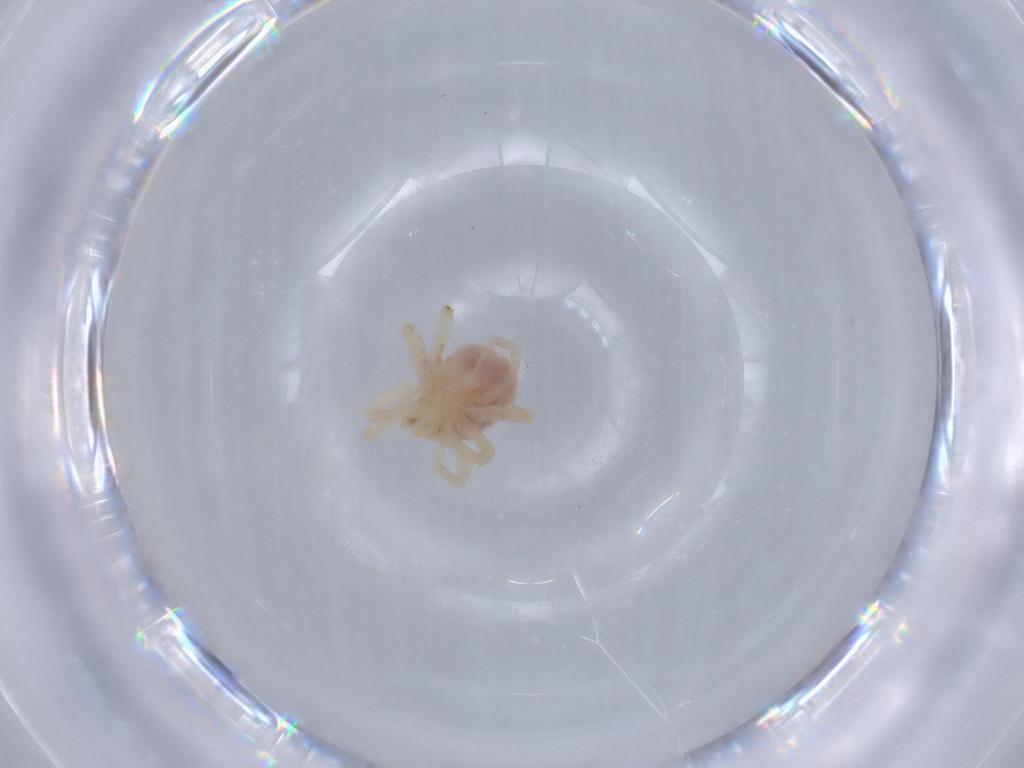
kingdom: Animalia
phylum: Arthropoda
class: Arachnida
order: Trombidiformes
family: Anystidae
